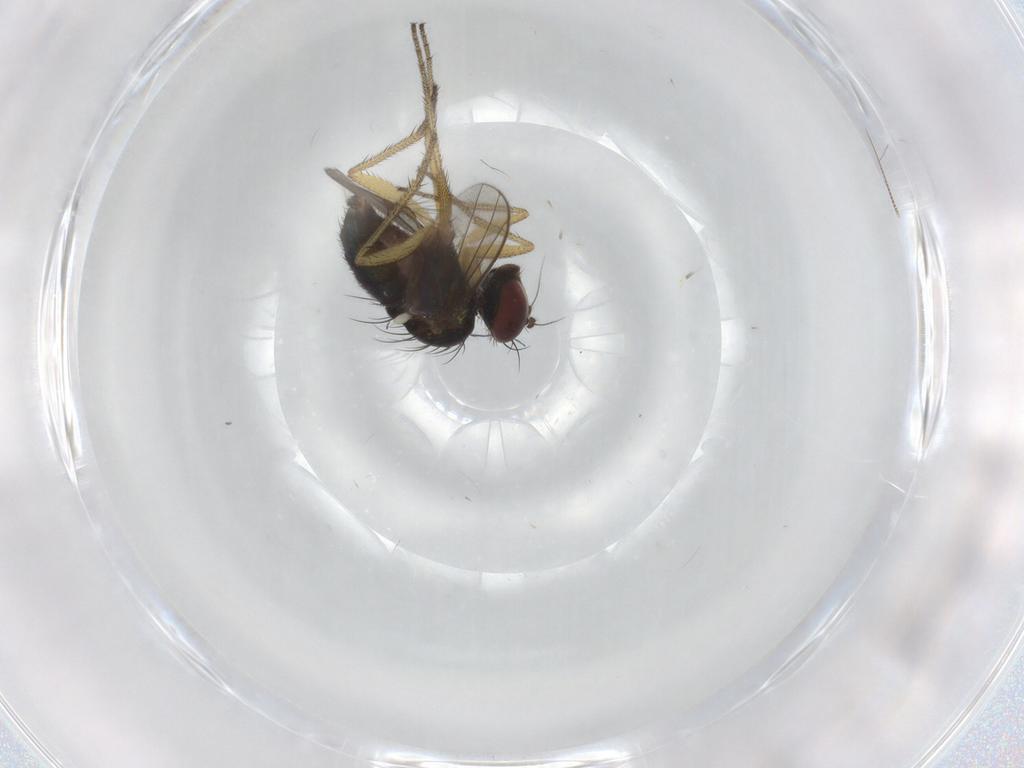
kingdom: Animalia
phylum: Arthropoda
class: Insecta
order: Diptera
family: Chironomidae
